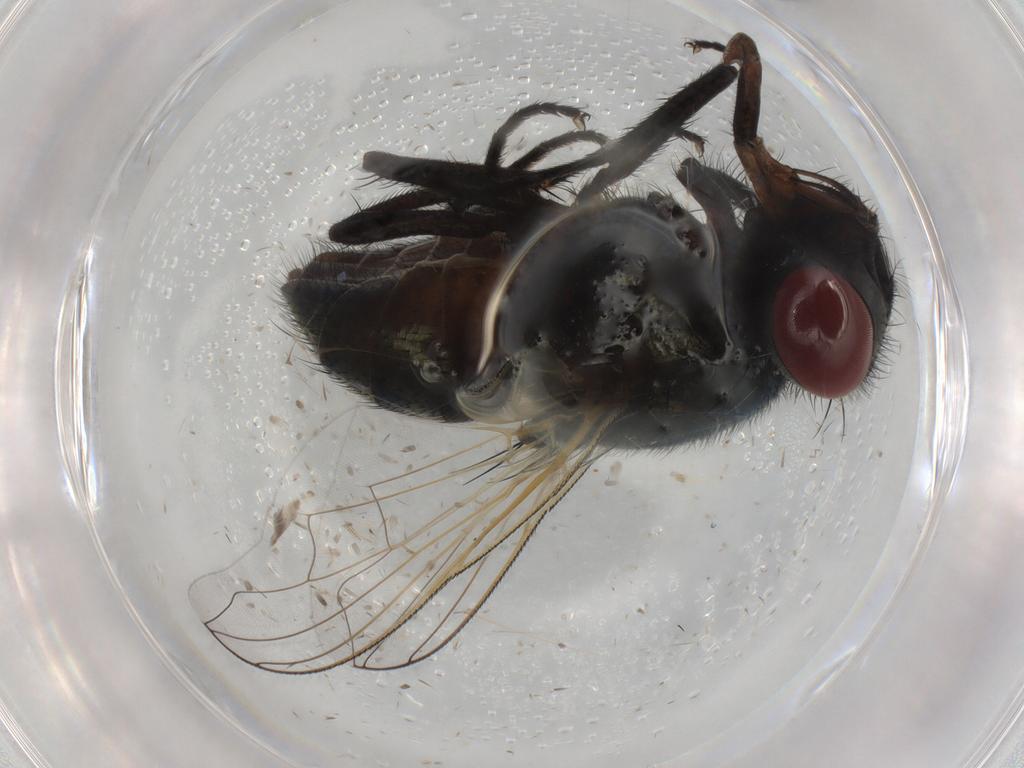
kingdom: Animalia
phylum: Arthropoda
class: Insecta
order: Diptera
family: Muscidae
